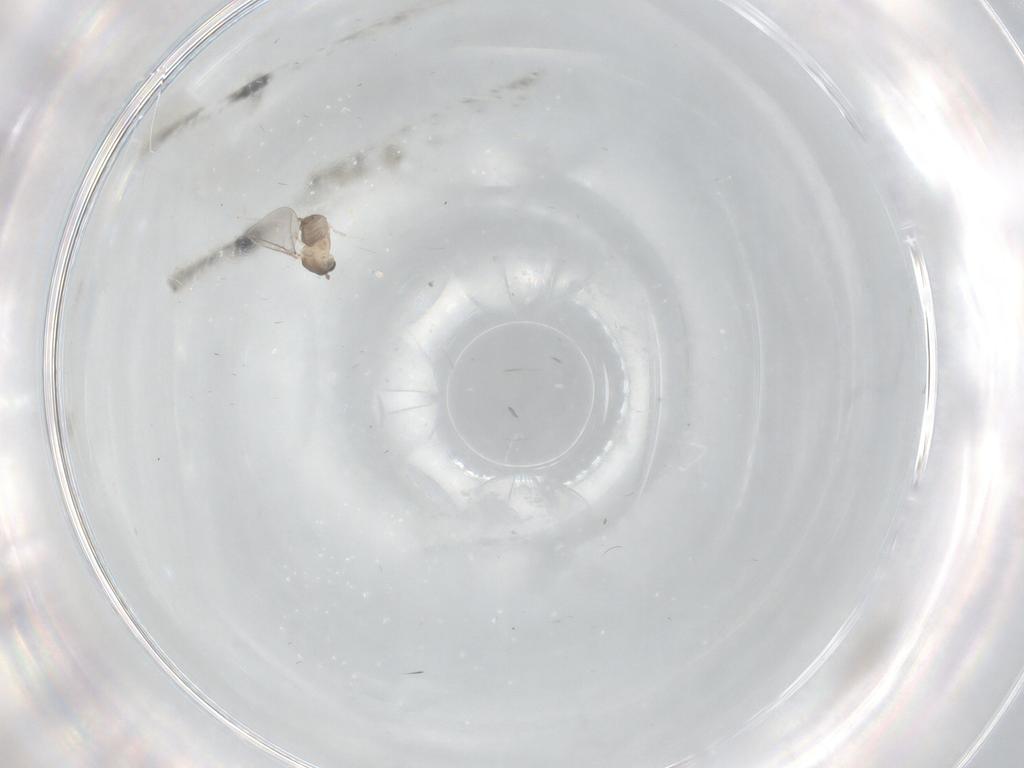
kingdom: Animalia
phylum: Arthropoda
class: Insecta
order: Diptera
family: Cecidomyiidae
